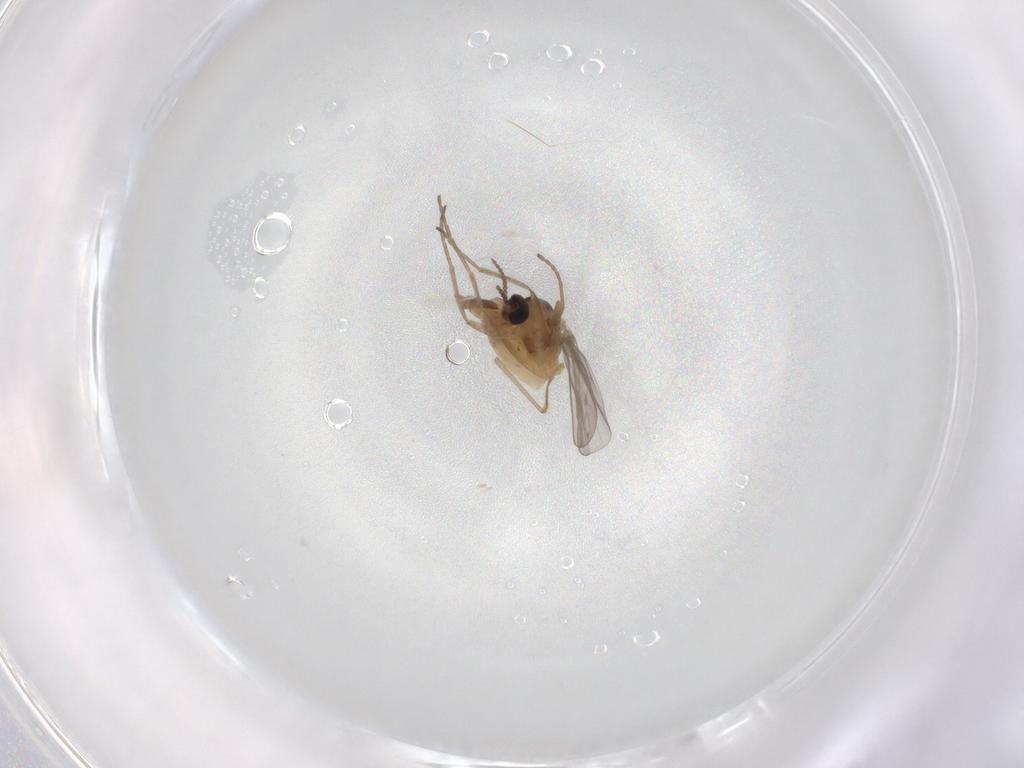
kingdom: Animalia
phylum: Arthropoda
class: Insecta
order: Diptera
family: Cecidomyiidae
